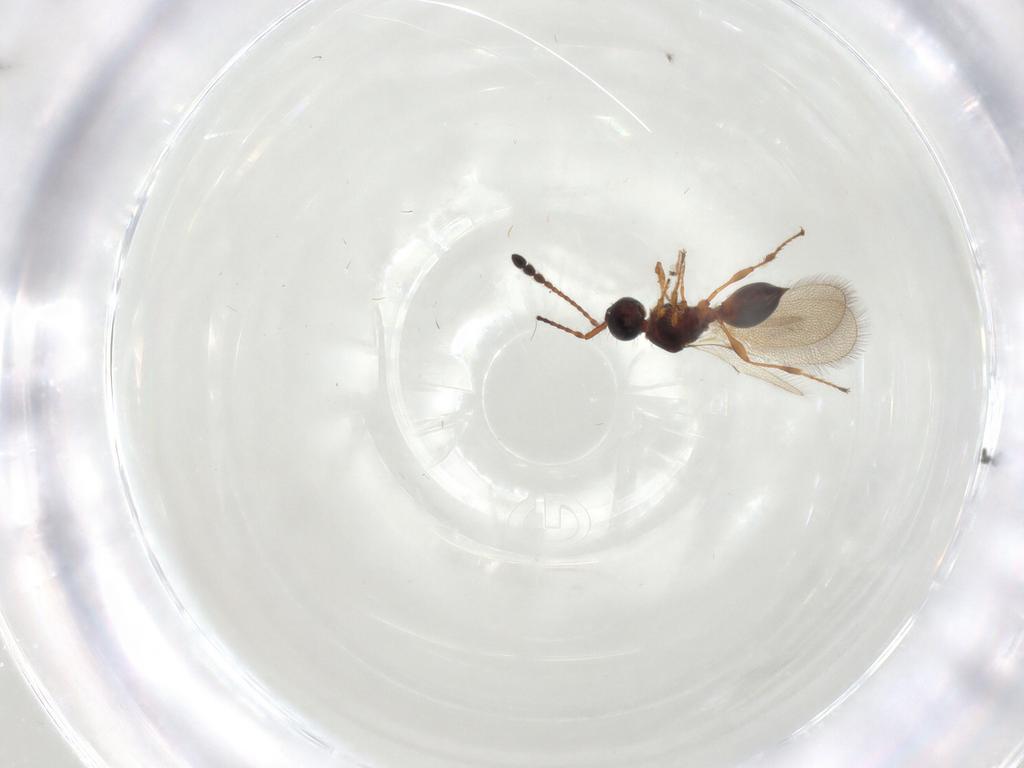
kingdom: Animalia
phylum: Arthropoda
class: Insecta
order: Hymenoptera
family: Diapriidae
